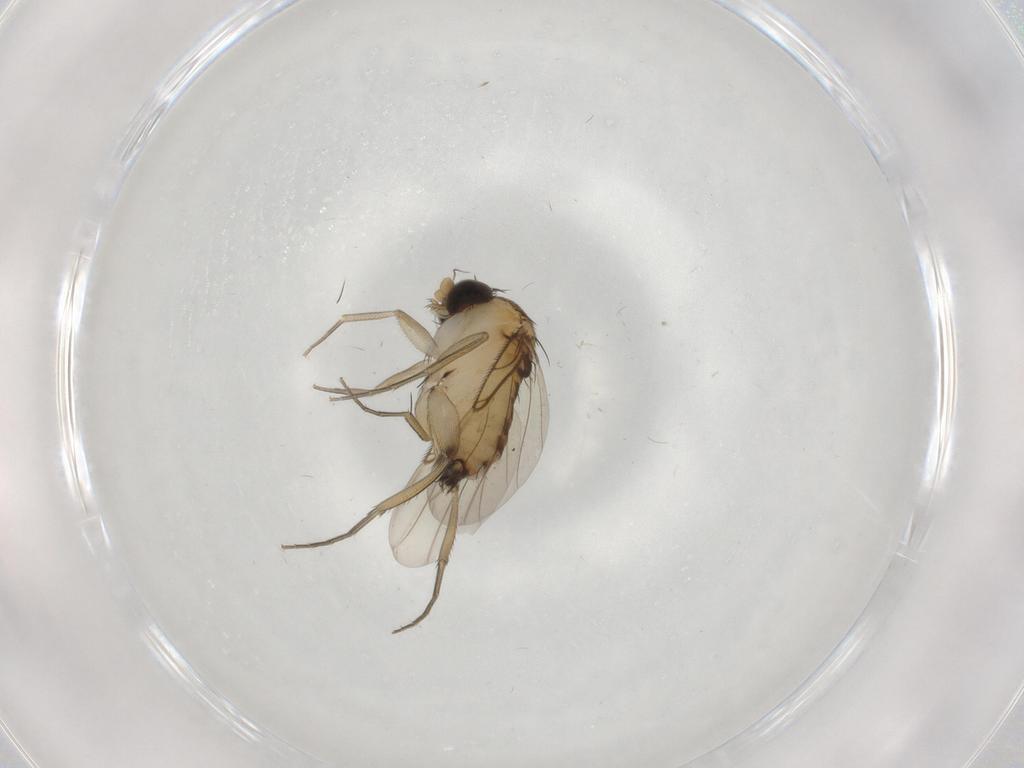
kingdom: Animalia
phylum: Arthropoda
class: Insecta
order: Diptera
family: Phoridae
